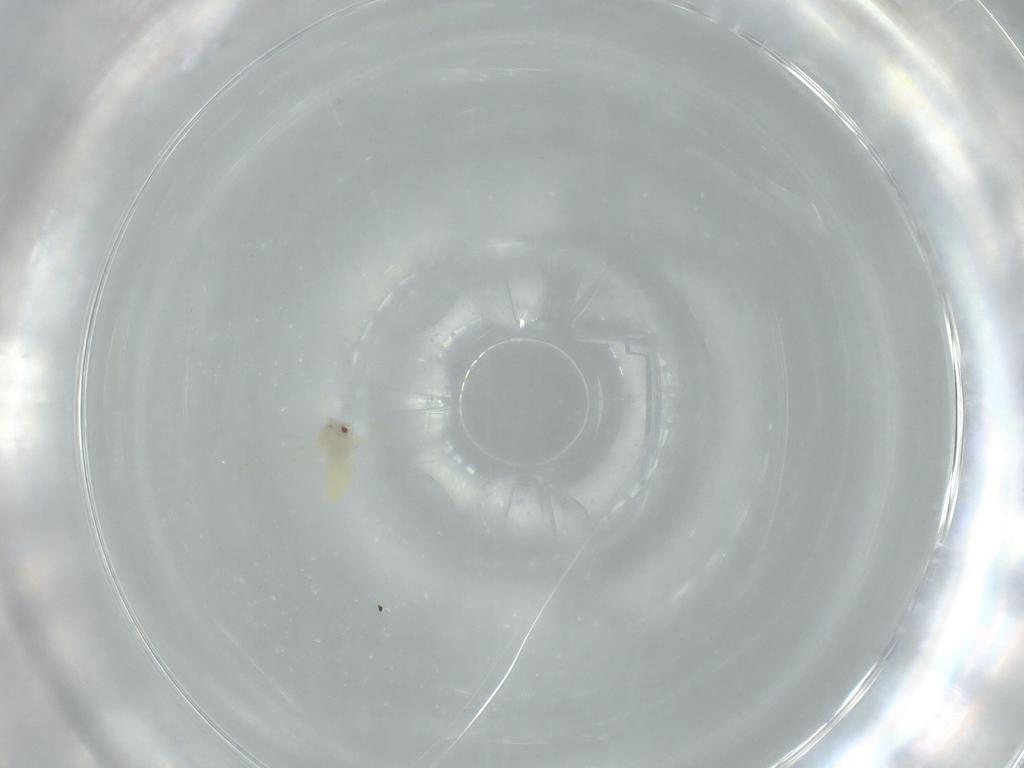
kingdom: Animalia
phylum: Arthropoda
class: Insecta
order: Hemiptera
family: Aleyrodidae
